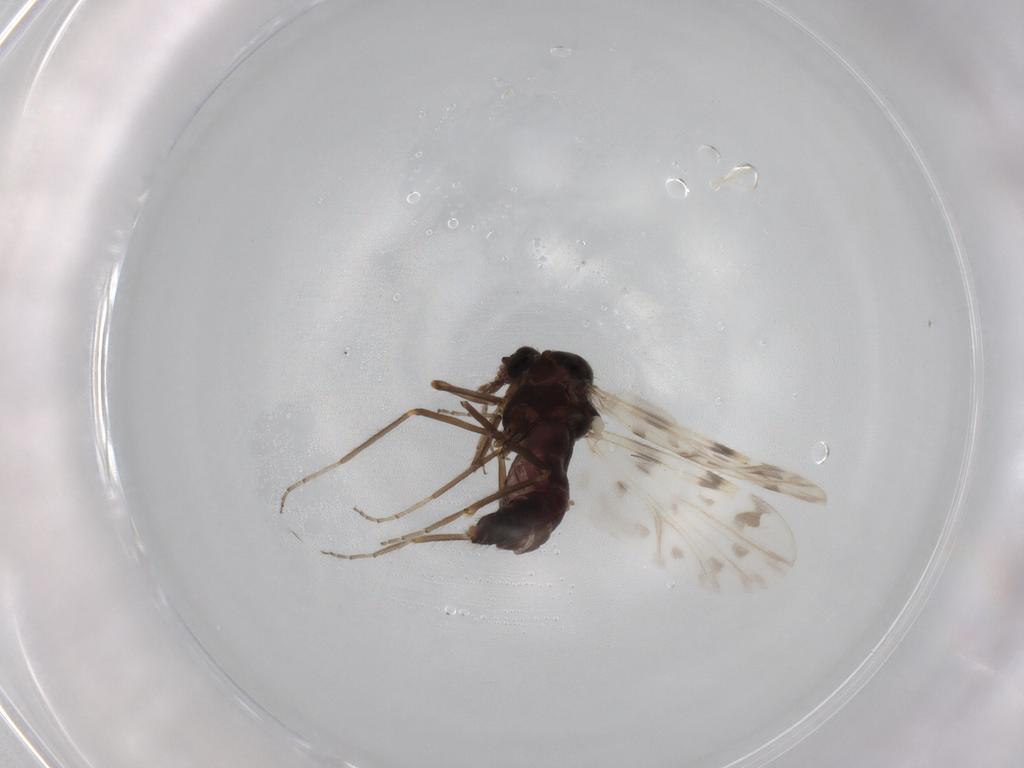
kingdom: Animalia
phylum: Arthropoda
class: Insecta
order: Diptera
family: Ceratopogonidae
